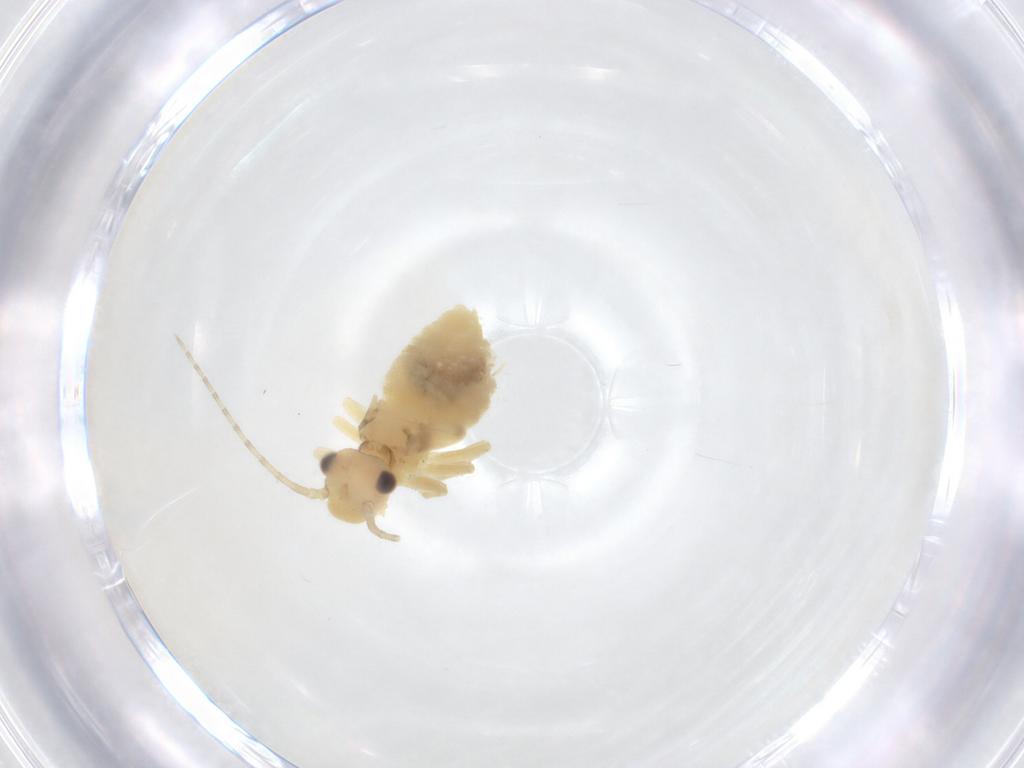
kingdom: Animalia
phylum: Arthropoda
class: Insecta
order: Psocodea
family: Amphipsocidae
